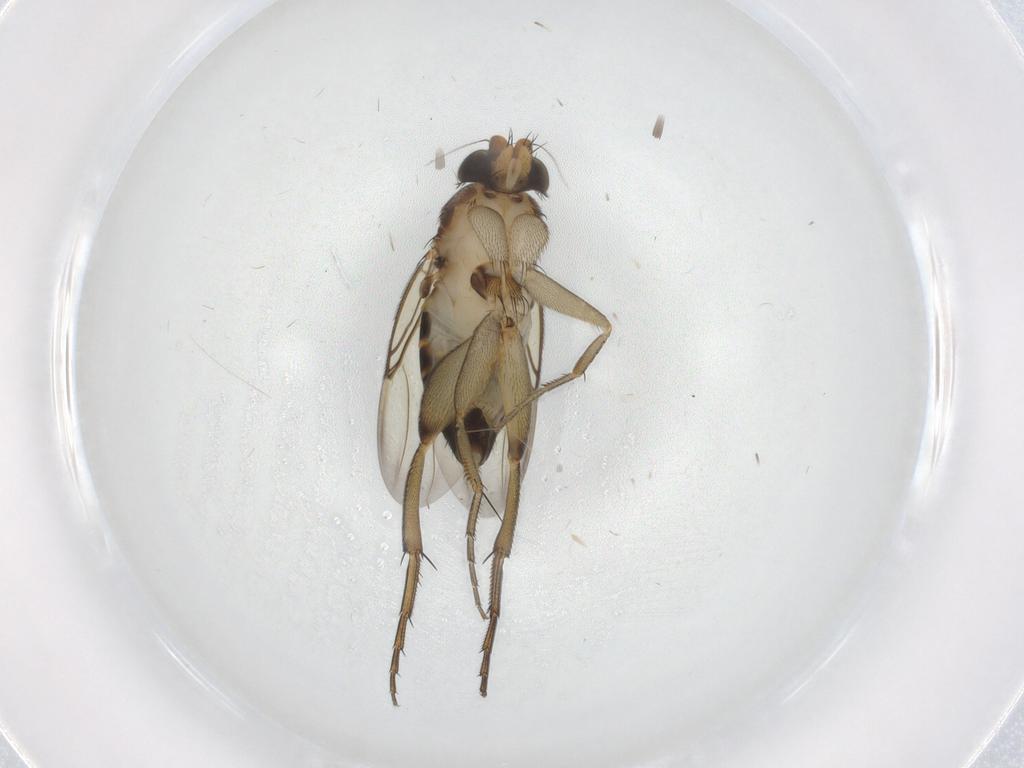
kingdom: Animalia
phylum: Arthropoda
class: Insecta
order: Diptera
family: Phoridae
